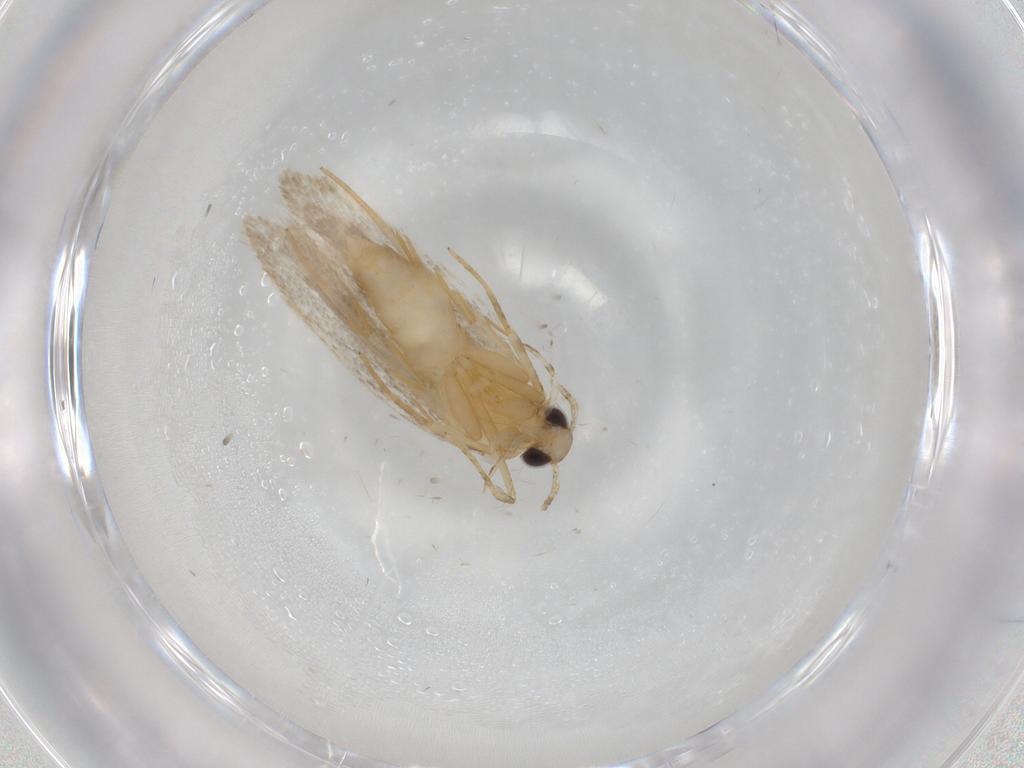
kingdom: Animalia
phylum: Arthropoda
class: Insecta
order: Lepidoptera
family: Autostichidae
